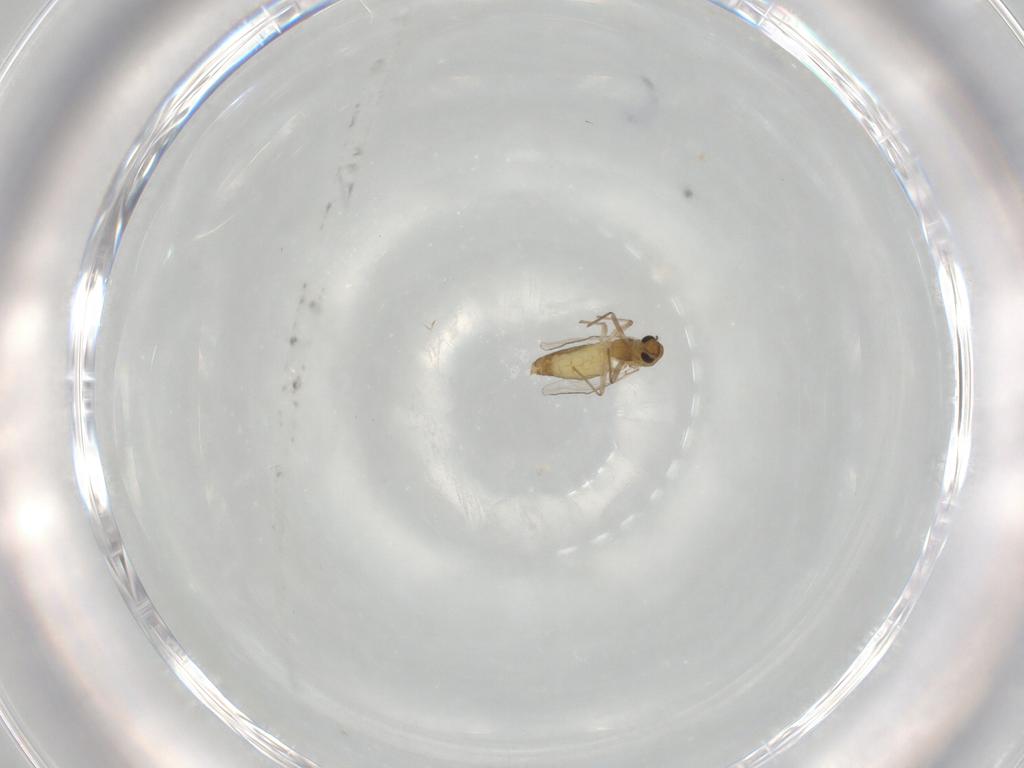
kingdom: Animalia
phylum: Arthropoda
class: Insecta
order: Diptera
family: Chironomidae
